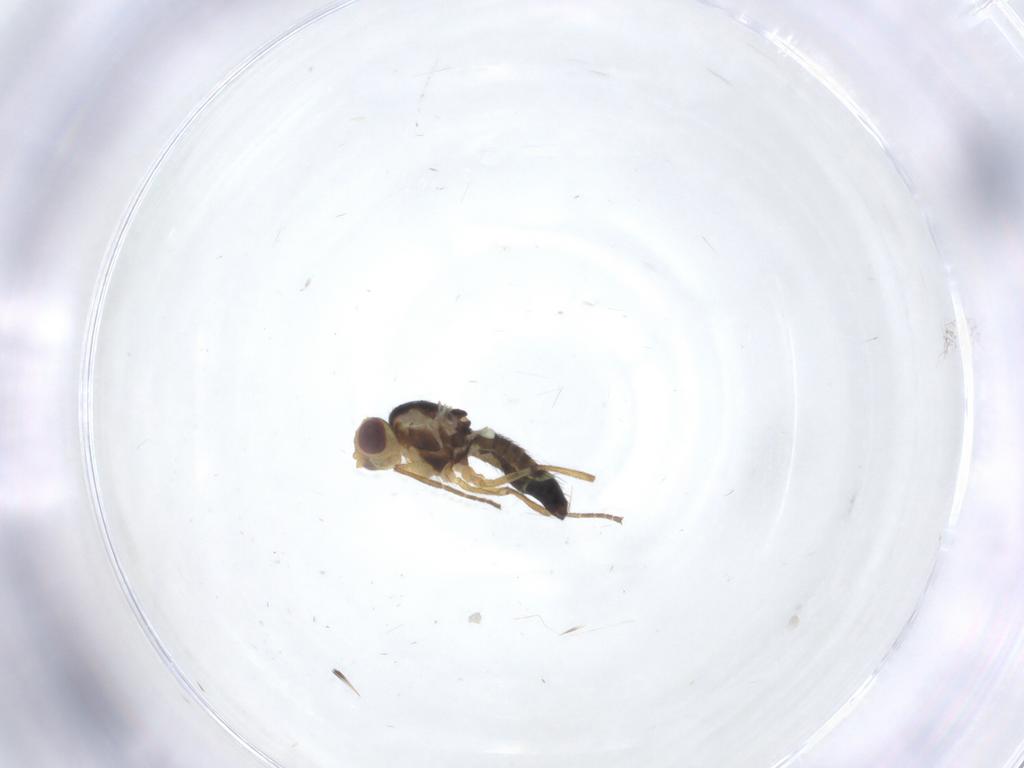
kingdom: Animalia
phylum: Arthropoda
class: Insecta
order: Diptera
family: Agromyzidae
